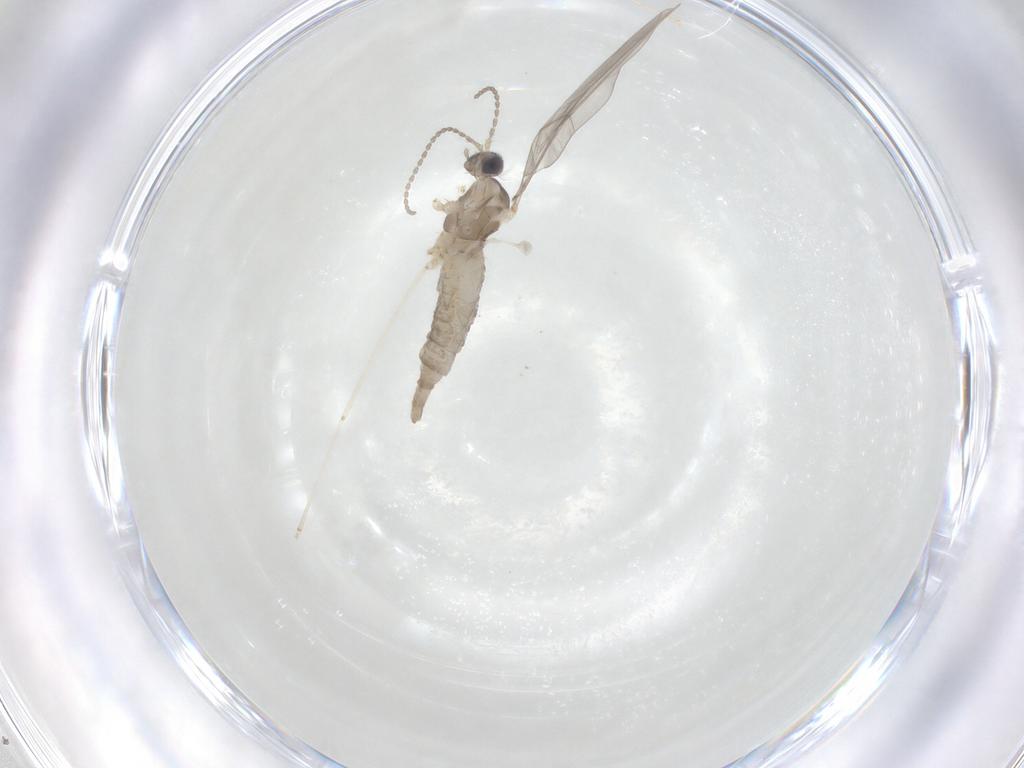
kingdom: Animalia
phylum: Arthropoda
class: Insecta
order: Diptera
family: Cecidomyiidae
